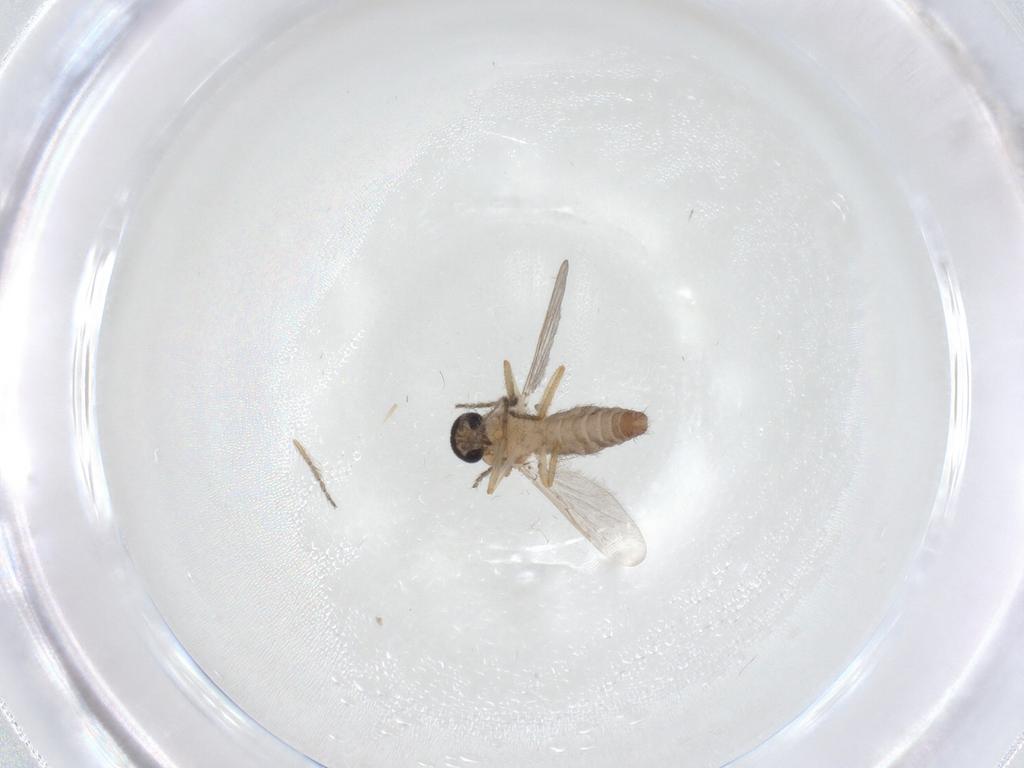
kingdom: Animalia
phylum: Arthropoda
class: Insecta
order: Diptera
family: Ceratopogonidae
